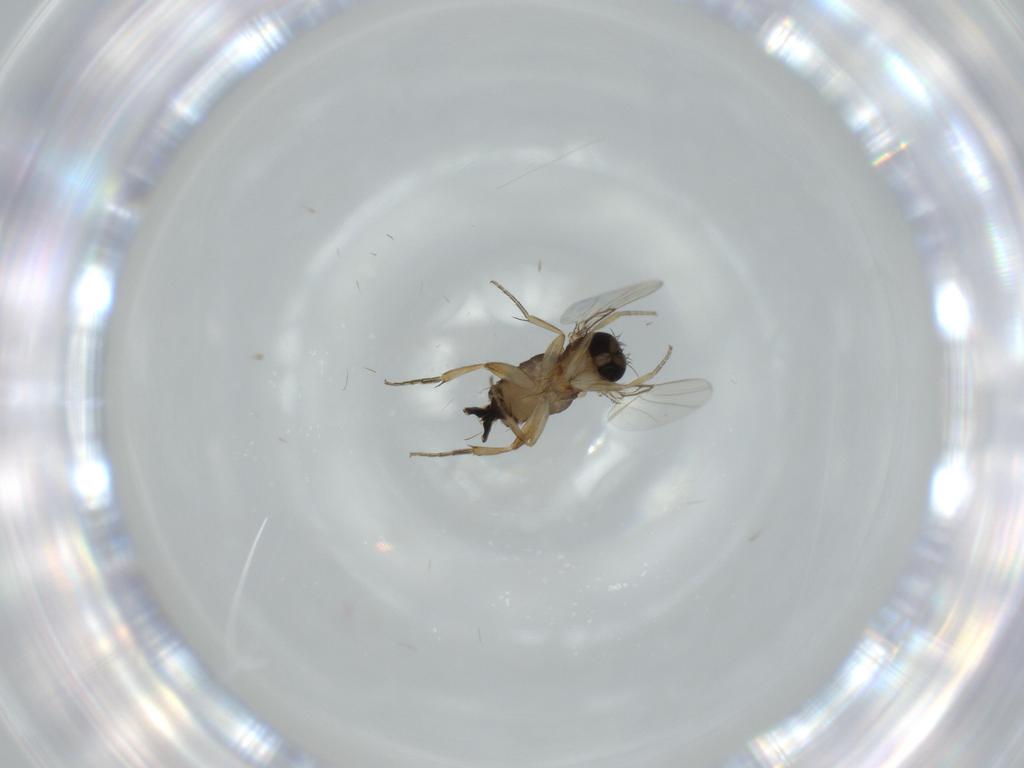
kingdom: Animalia
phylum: Arthropoda
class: Insecta
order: Diptera
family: Phoridae
